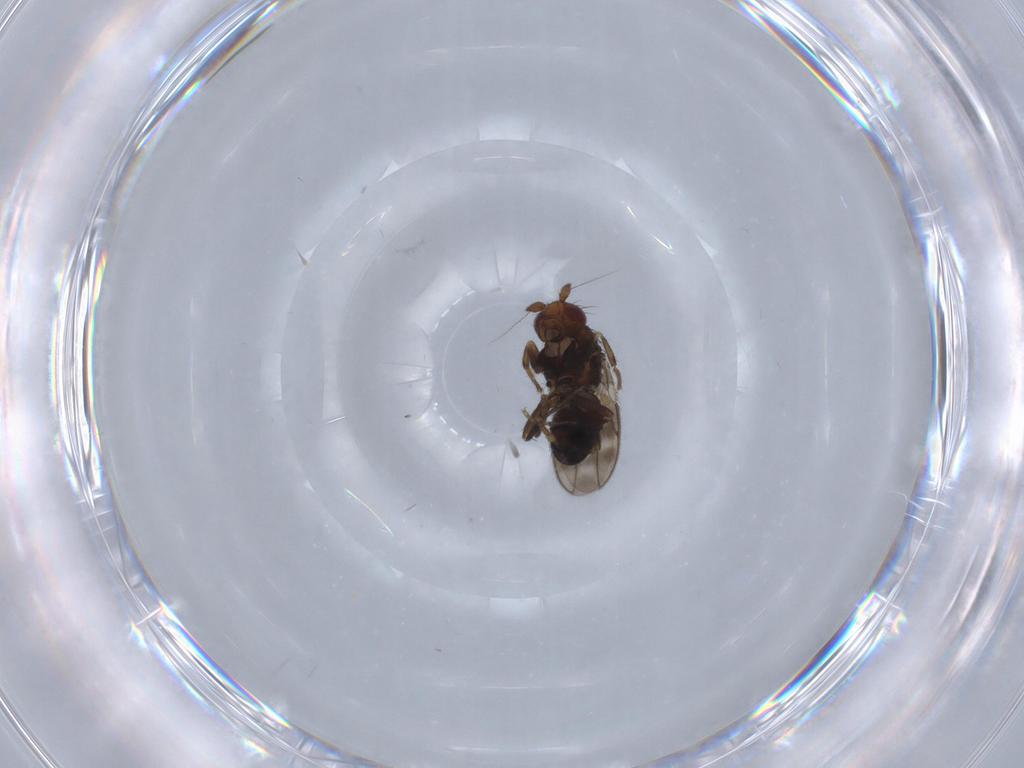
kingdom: Animalia
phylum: Arthropoda
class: Insecta
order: Diptera
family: Sphaeroceridae
